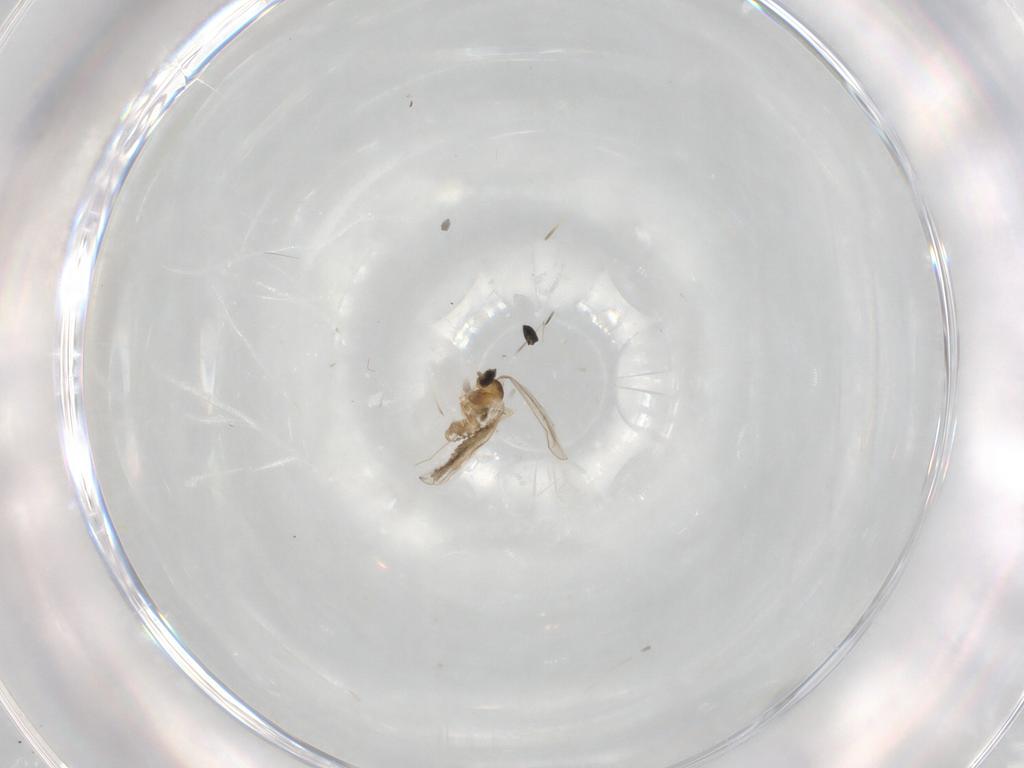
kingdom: Animalia
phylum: Arthropoda
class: Insecta
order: Diptera
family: Cecidomyiidae
